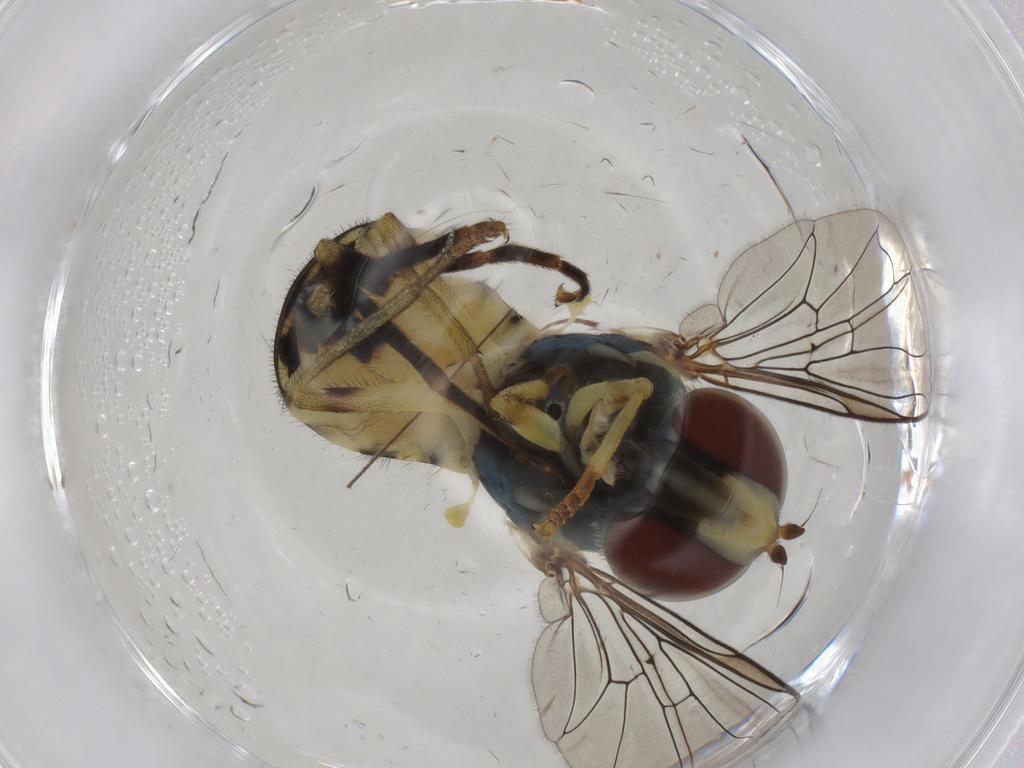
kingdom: Animalia
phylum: Arthropoda
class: Insecta
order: Diptera
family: Syrphidae
